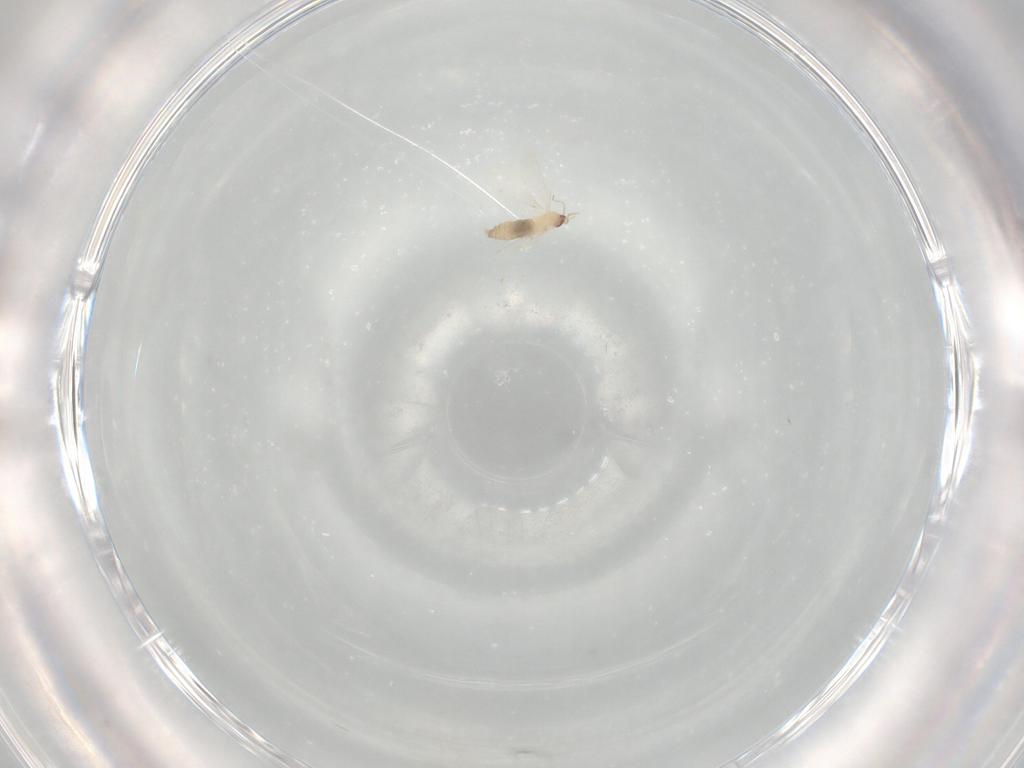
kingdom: Animalia
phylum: Arthropoda
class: Insecta
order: Diptera
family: Cecidomyiidae
